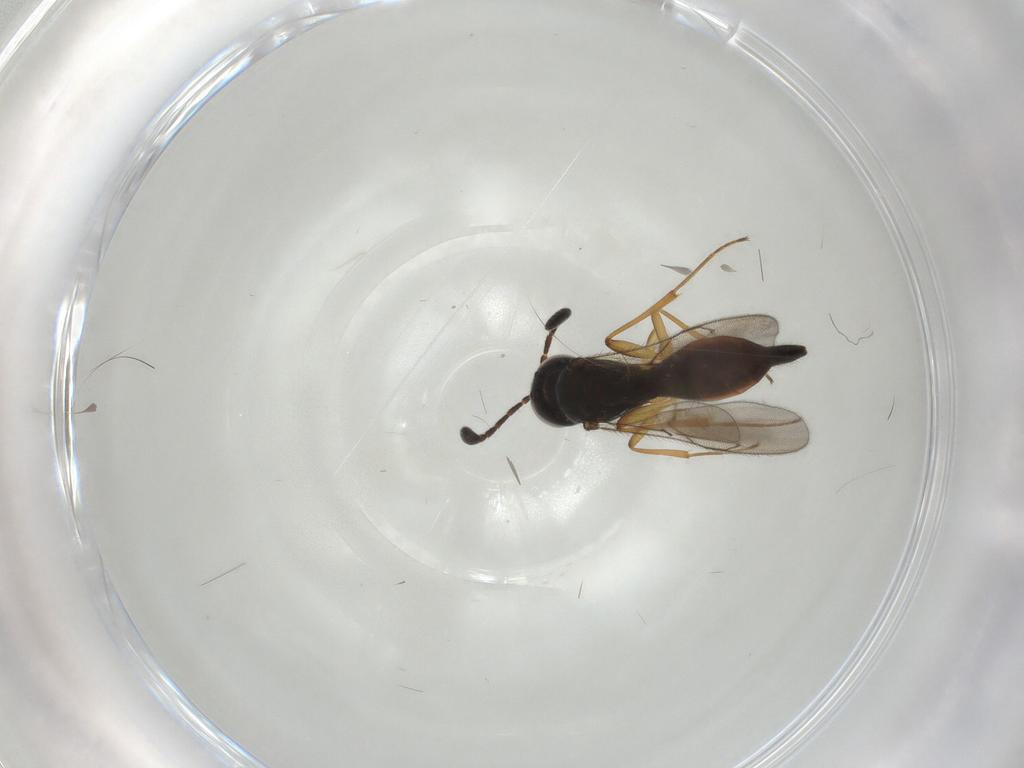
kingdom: Animalia
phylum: Arthropoda
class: Insecta
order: Hymenoptera
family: Scelionidae
